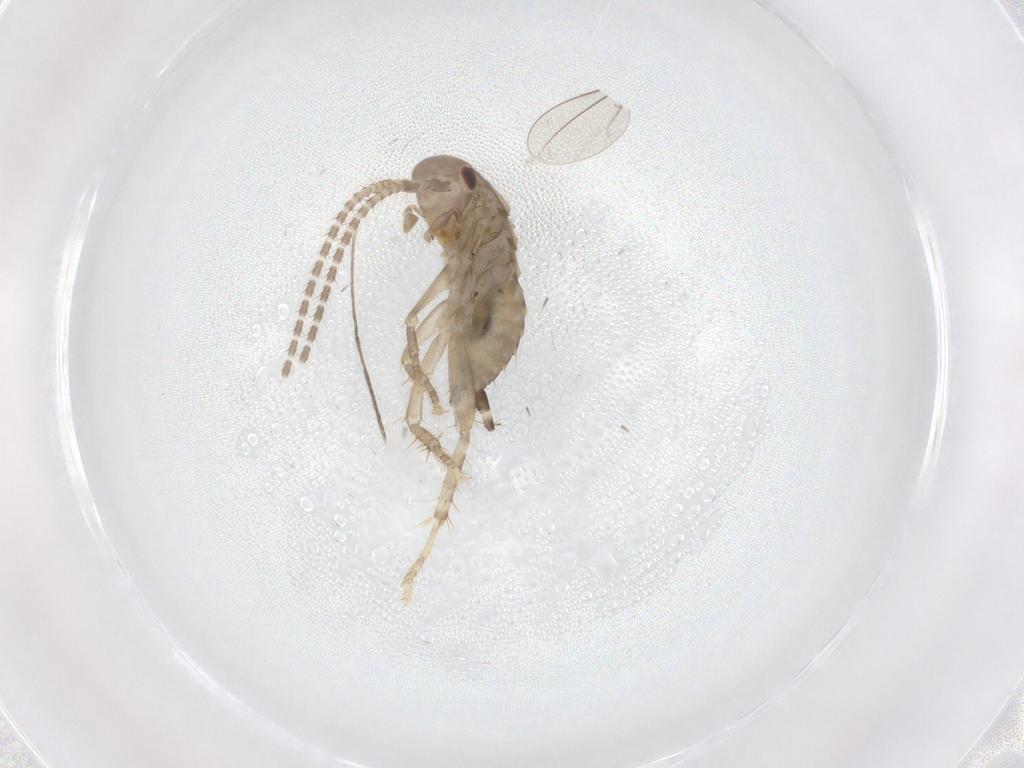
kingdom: Animalia
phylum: Arthropoda
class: Insecta
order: Blattodea
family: Ectobiidae
